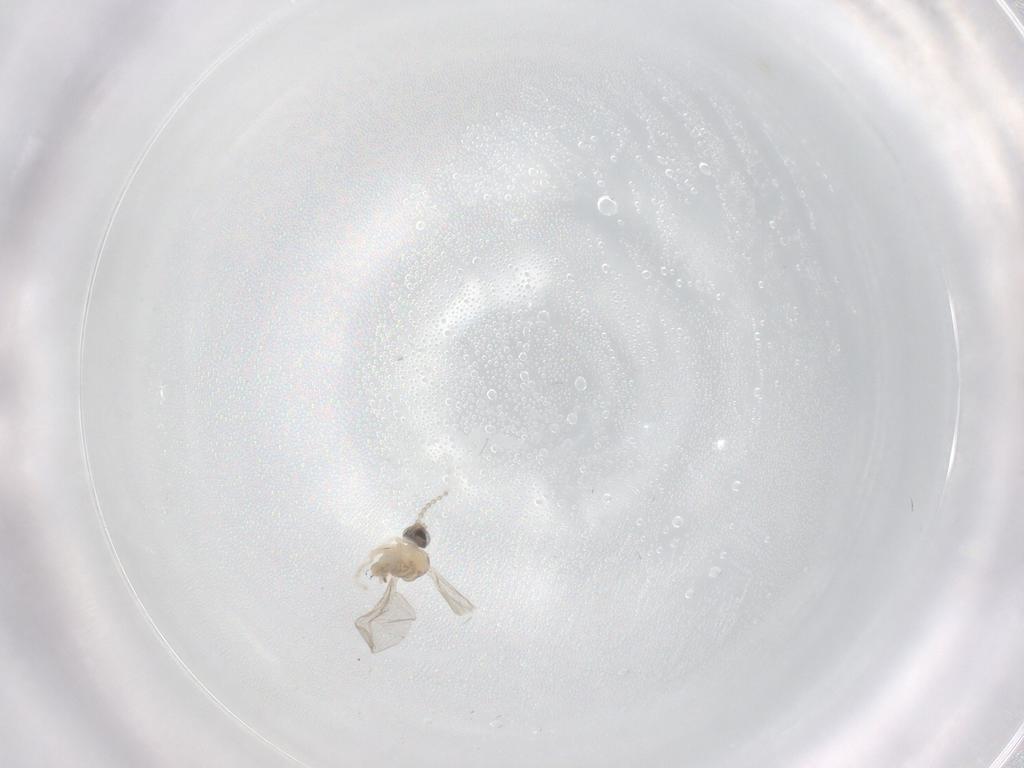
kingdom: Animalia
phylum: Arthropoda
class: Insecta
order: Diptera
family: Cecidomyiidae
